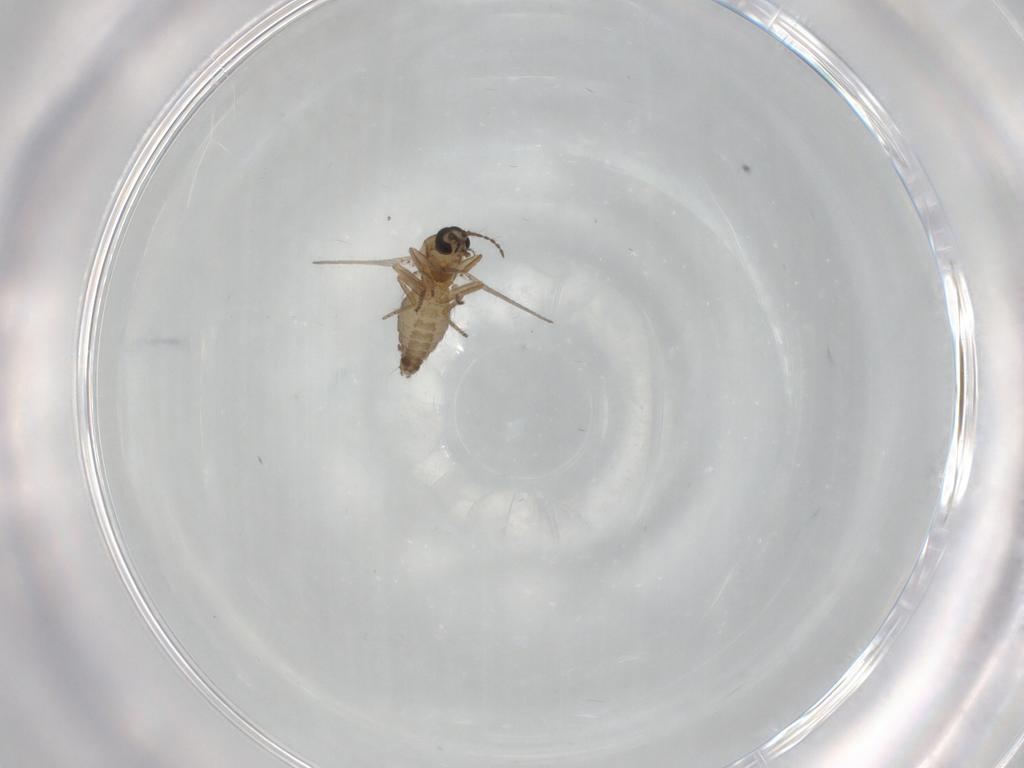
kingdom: Animalia
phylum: Arthropoda
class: Insecta
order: Diptera
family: Ceratopogonidae
